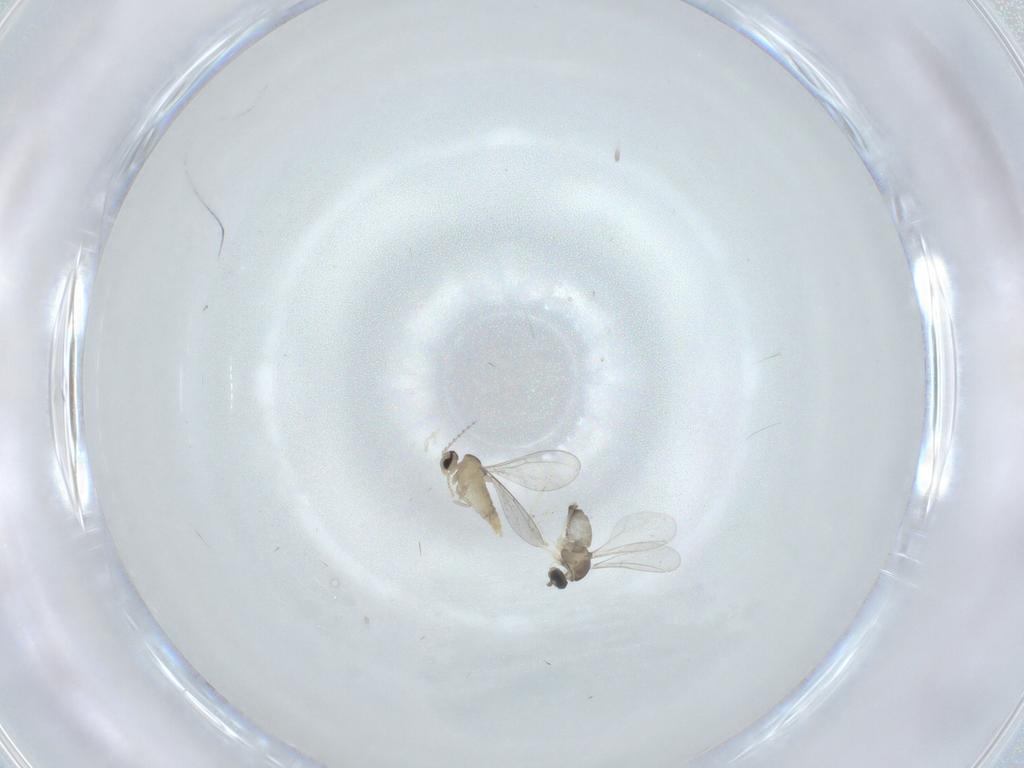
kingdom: Animalia
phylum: Arthropoda
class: Insecta
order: Diptera
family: Cecidomyiidae
